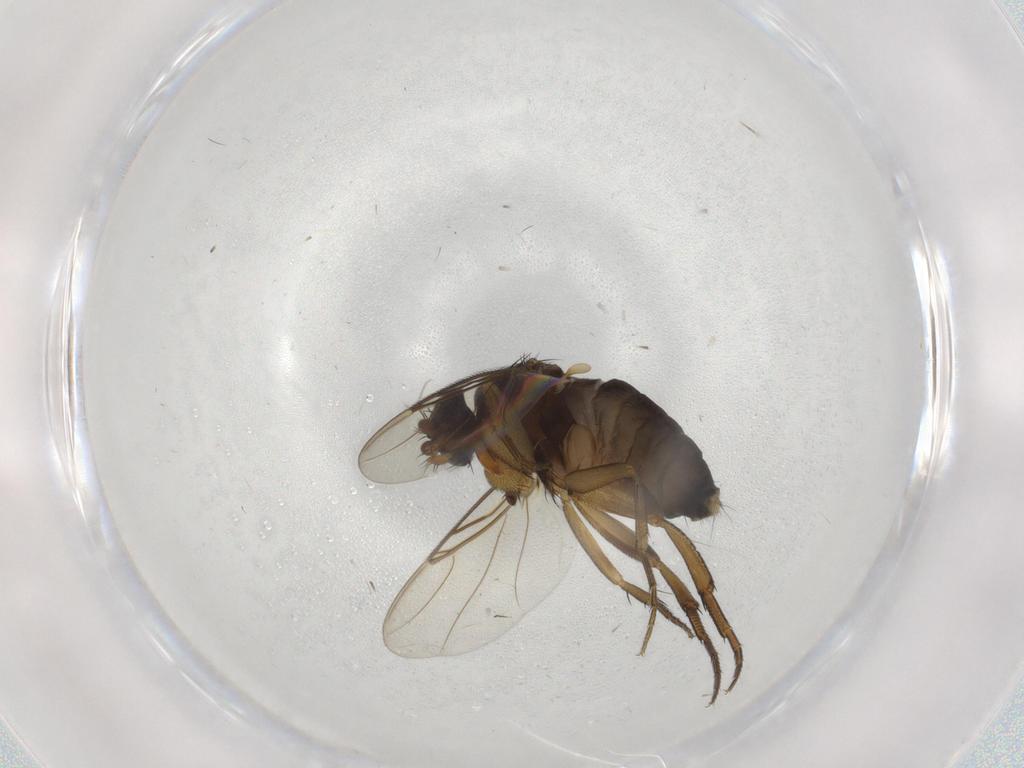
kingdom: Animalia
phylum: Arthropoda
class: Insecta
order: Diptera
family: Phoridae
